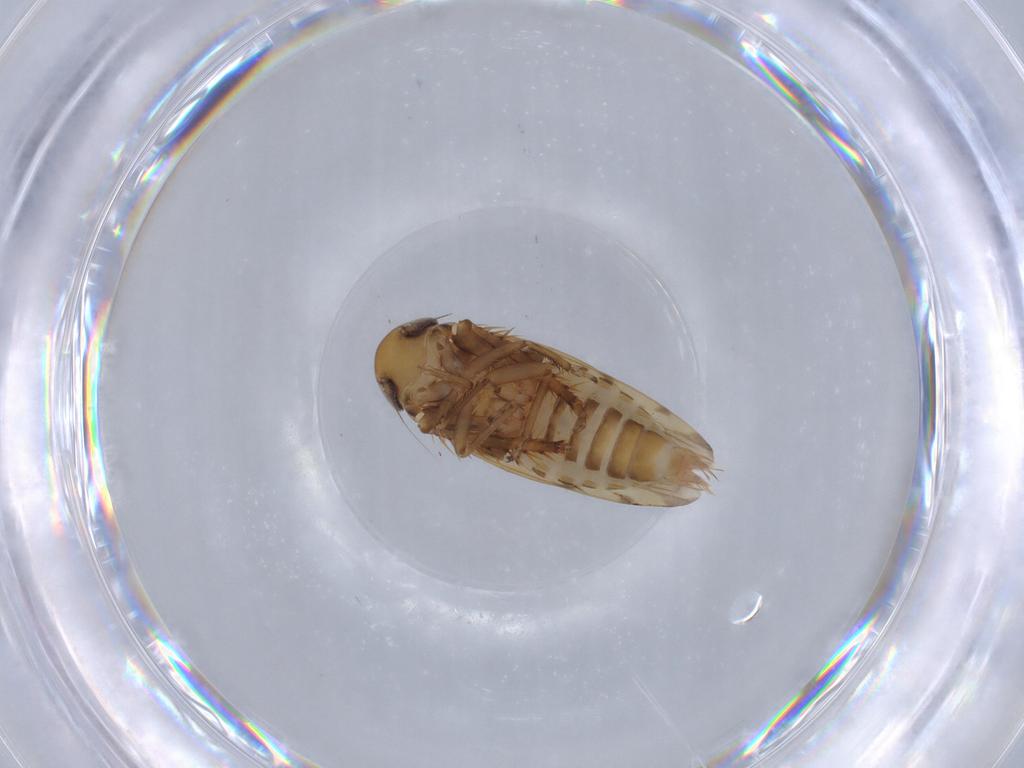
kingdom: Animalia
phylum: Arthropoda
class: Insecta
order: Hemiptera
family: Cicadellidae
